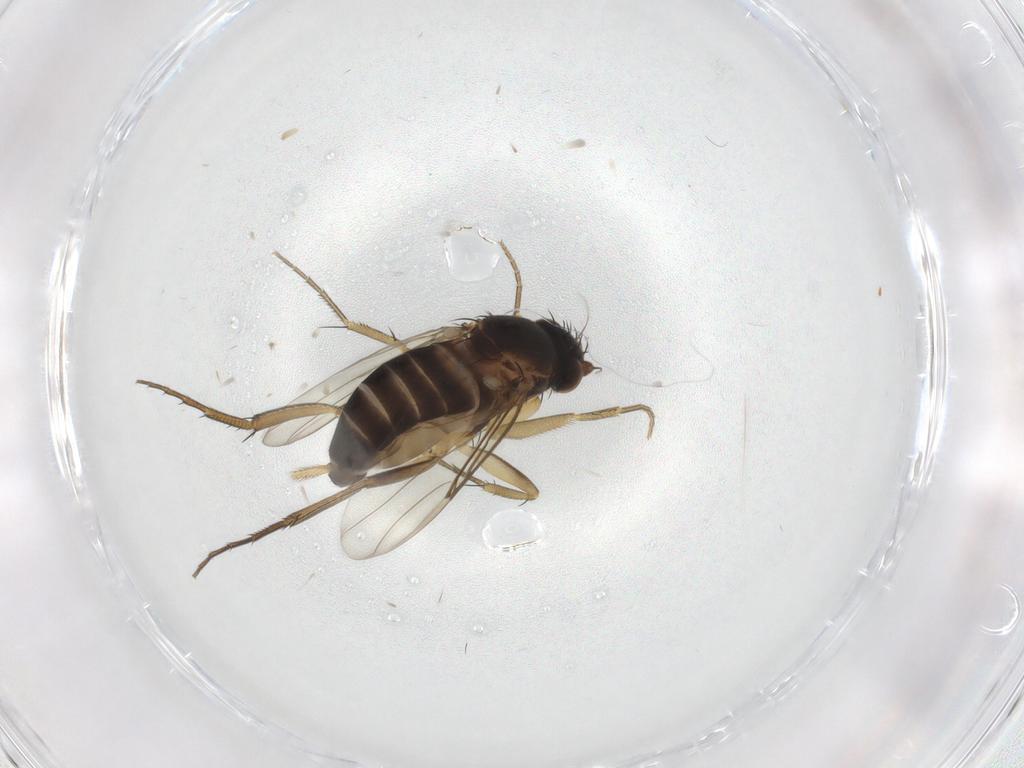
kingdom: Animalia
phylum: Arthropoda
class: Insecta
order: Diptera
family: Phoridae
